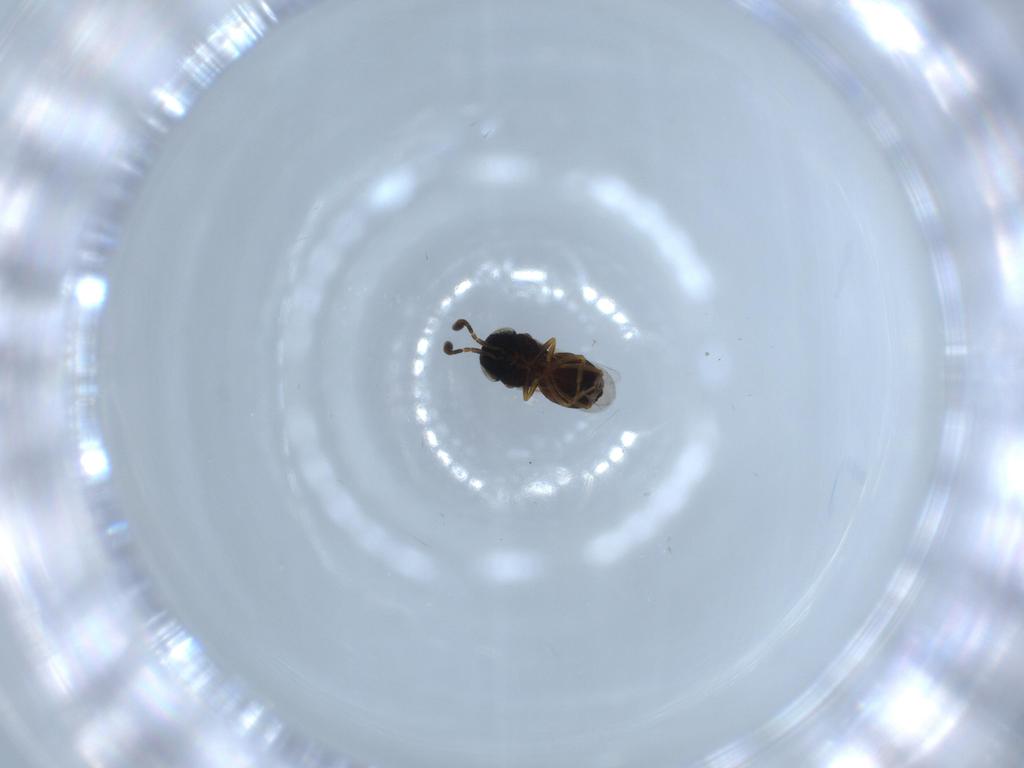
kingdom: Animalia
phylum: Arthropoda
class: Insecta
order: Hymenoptera
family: Scelionidae
